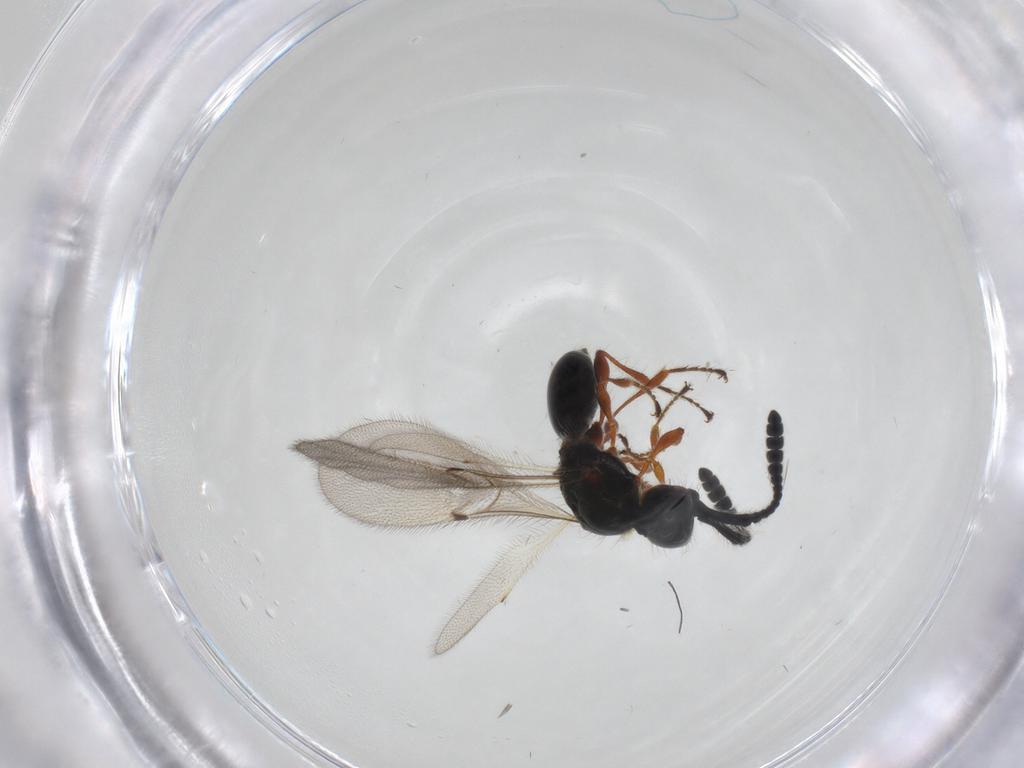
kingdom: Animalia
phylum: Arthropoda
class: Insecta
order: Hymenoptera
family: Diapriidae
